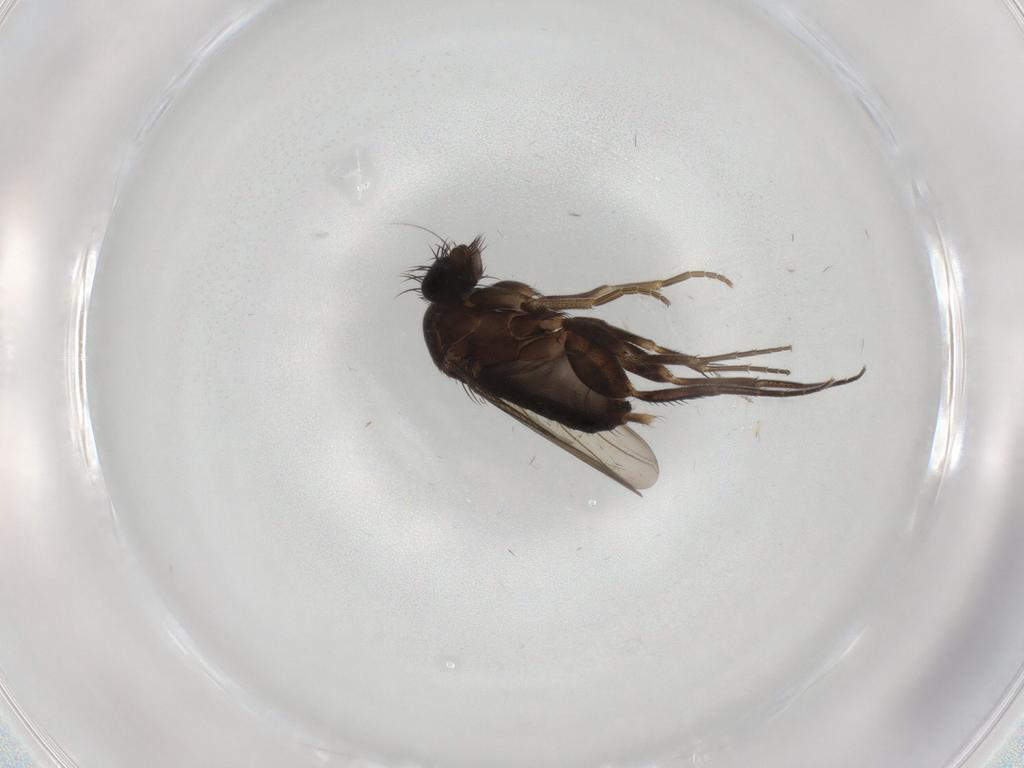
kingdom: Animalia
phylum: Arthropoda
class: Insecta
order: Diptera
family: Phoridae
